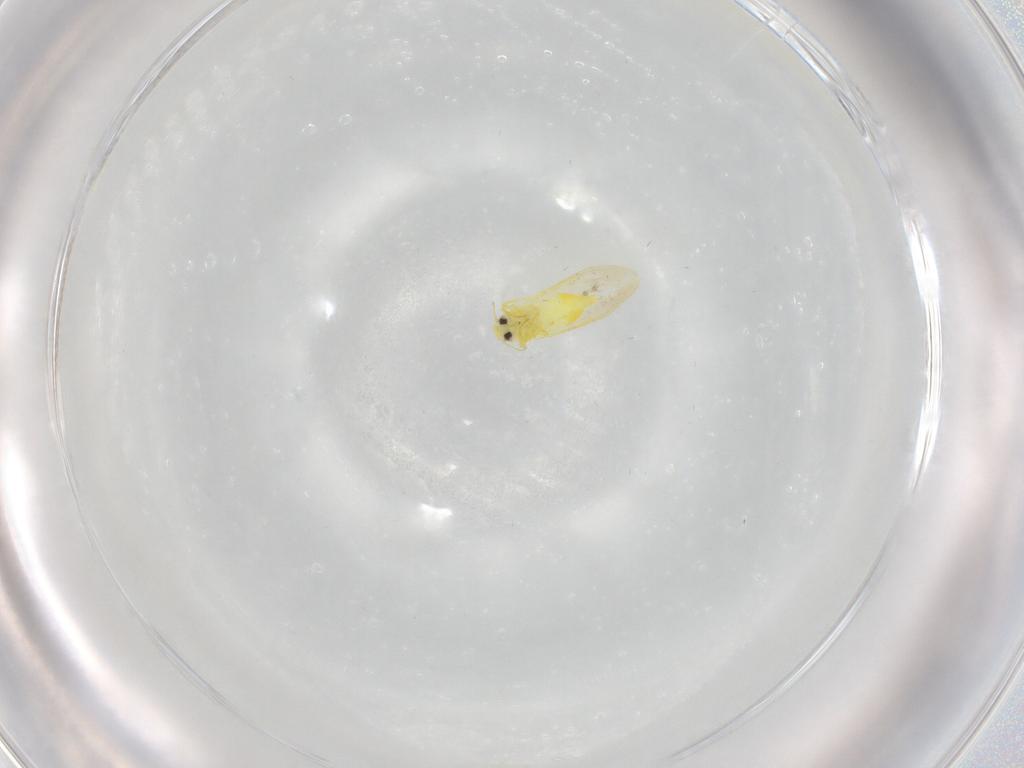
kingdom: Animalia
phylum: Arthropoda
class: Insecta
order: Hemiptera
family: Aleyrodidae
